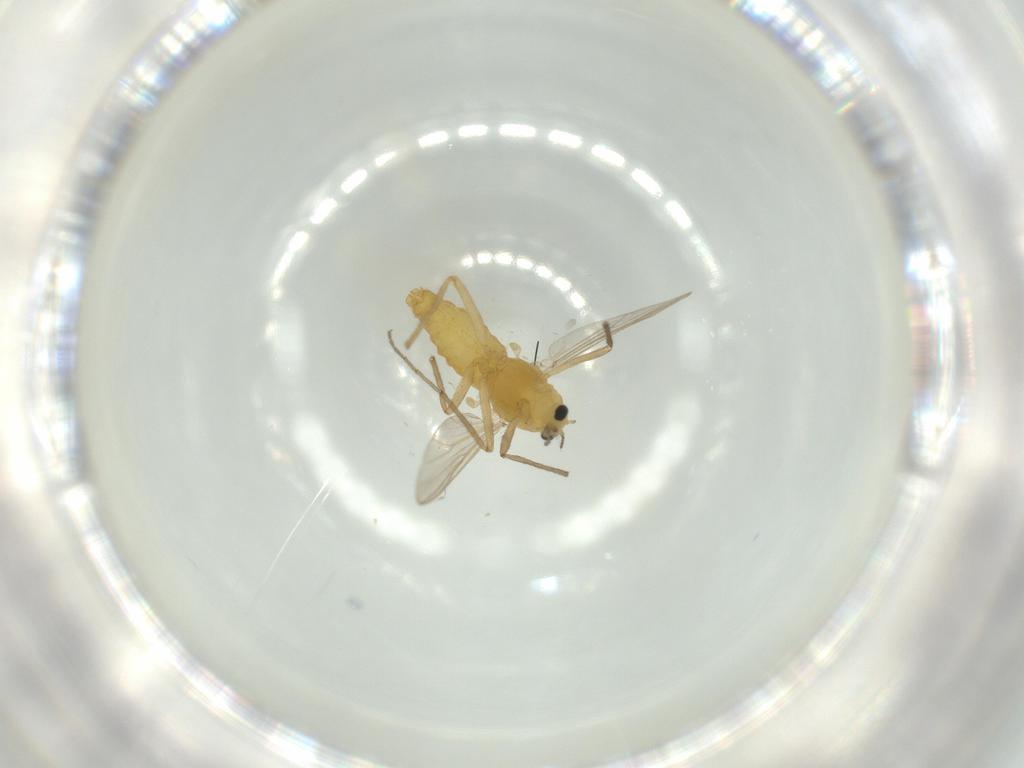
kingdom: Animalia
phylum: Arthropoda
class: Insecta
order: Diptera
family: Chironomidae
